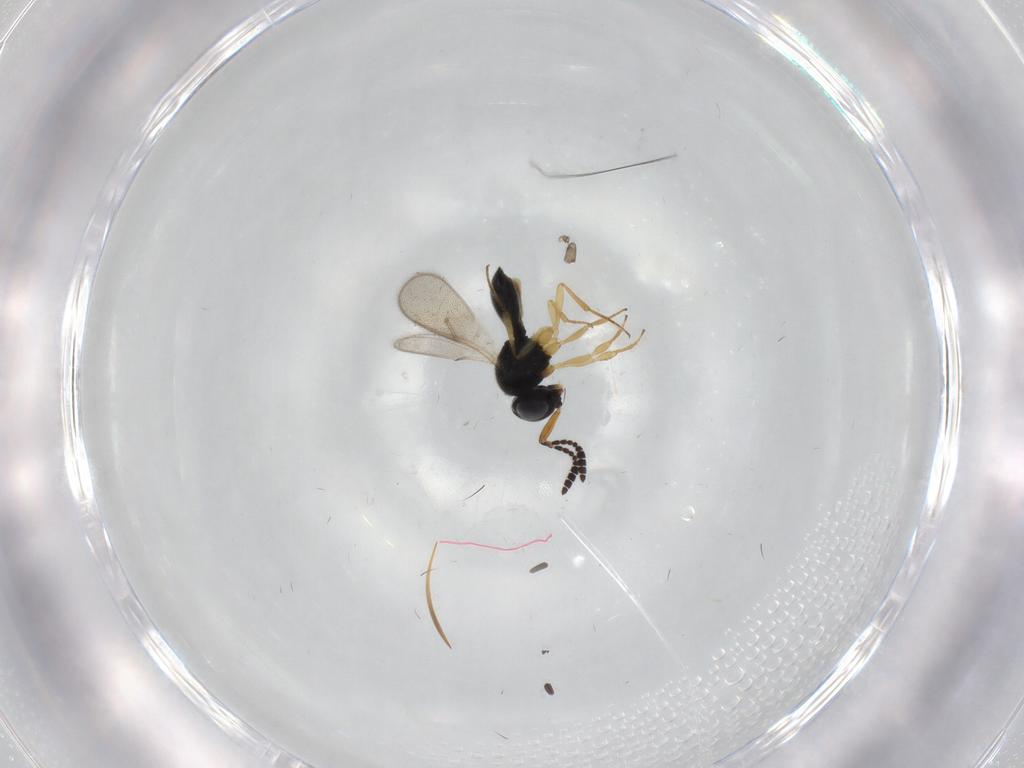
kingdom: Animalia
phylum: Arthropoda
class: Insecta
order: Hymenoptera
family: Scelionidae
